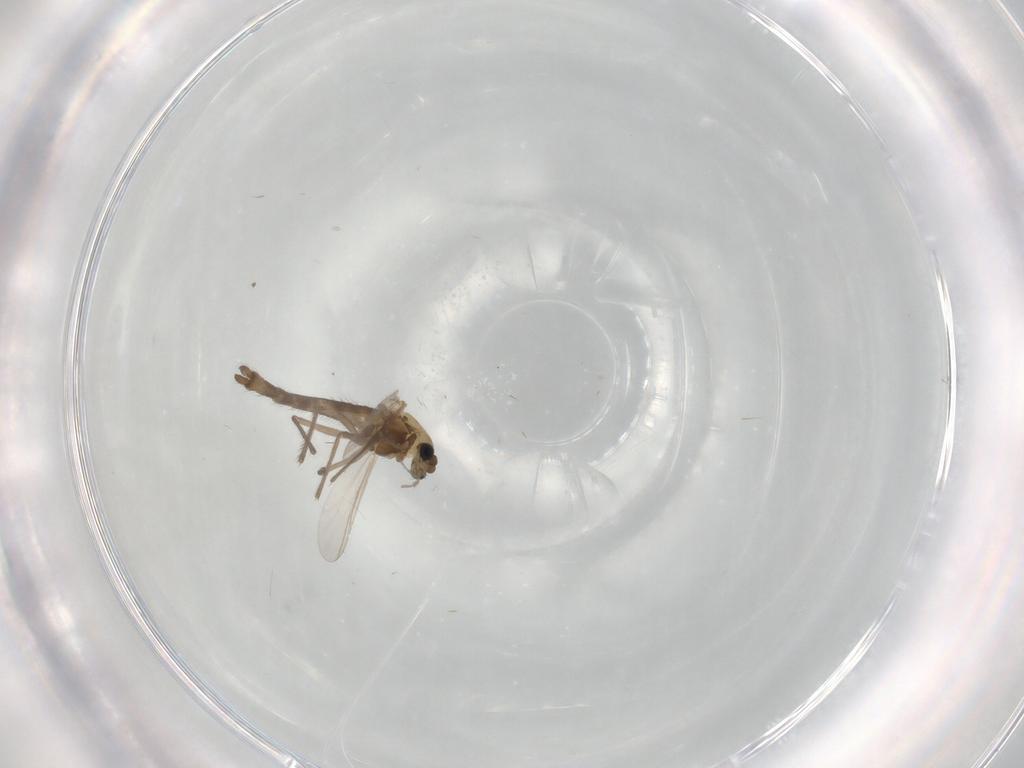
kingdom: Animalia
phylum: Arthropoda
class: Insecta
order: Diptera
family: Chironomidae
